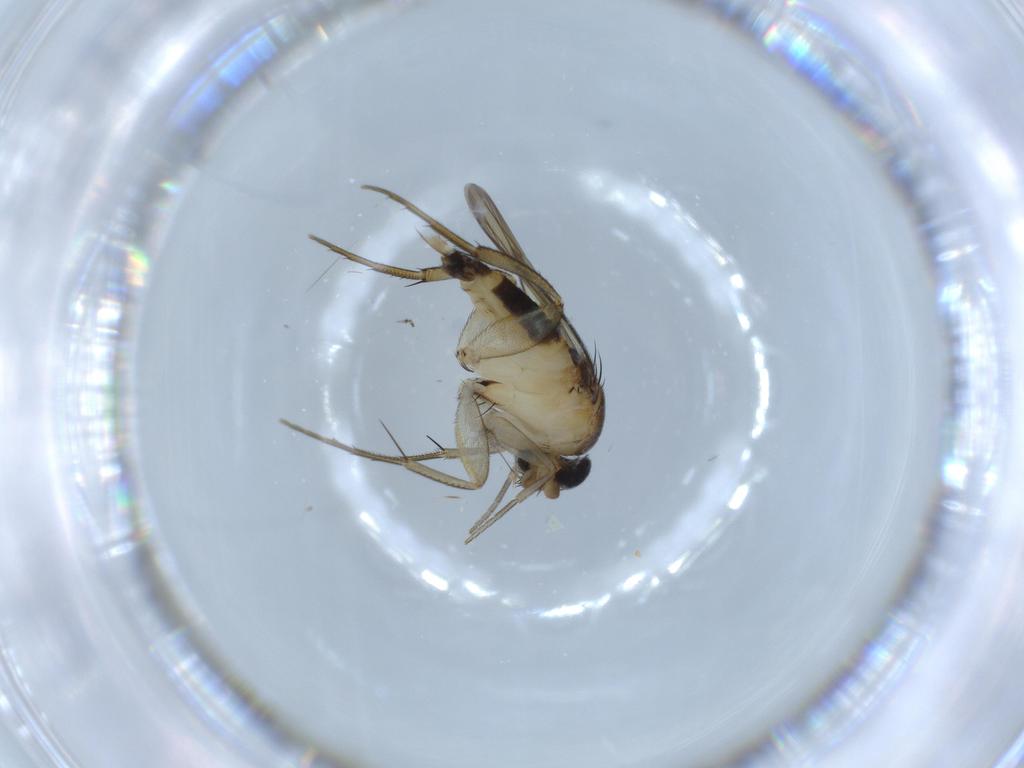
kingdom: Animalia
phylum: Arthropoda
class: Insecta
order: Diptera
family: Phoridae
